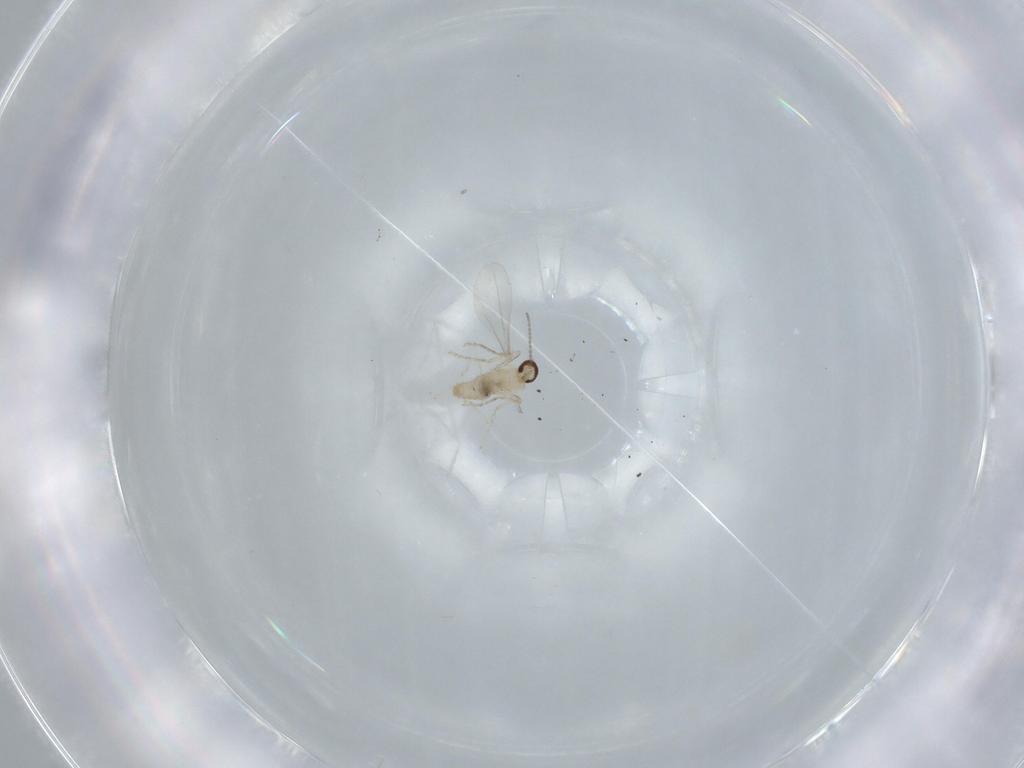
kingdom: Animalia
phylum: Arthropoda
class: Insecta
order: Diptera
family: Cecidomyiidae
